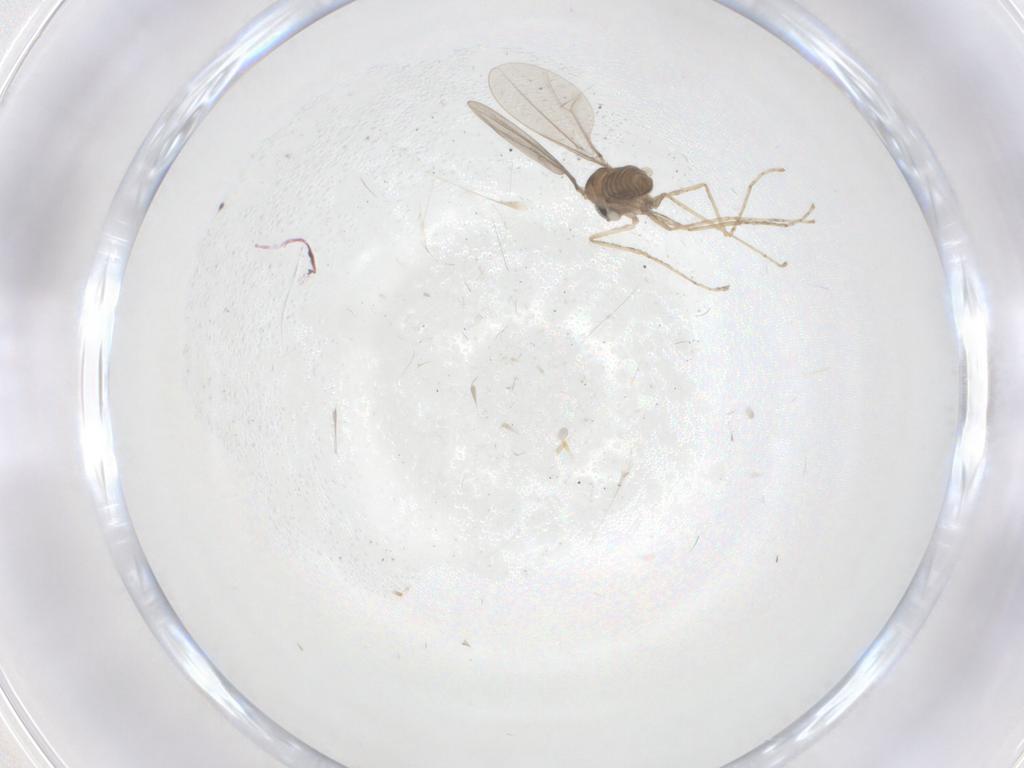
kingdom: Animalia
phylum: Arthropoda
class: Insecta
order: Diptera
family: Cecidomyiidae
